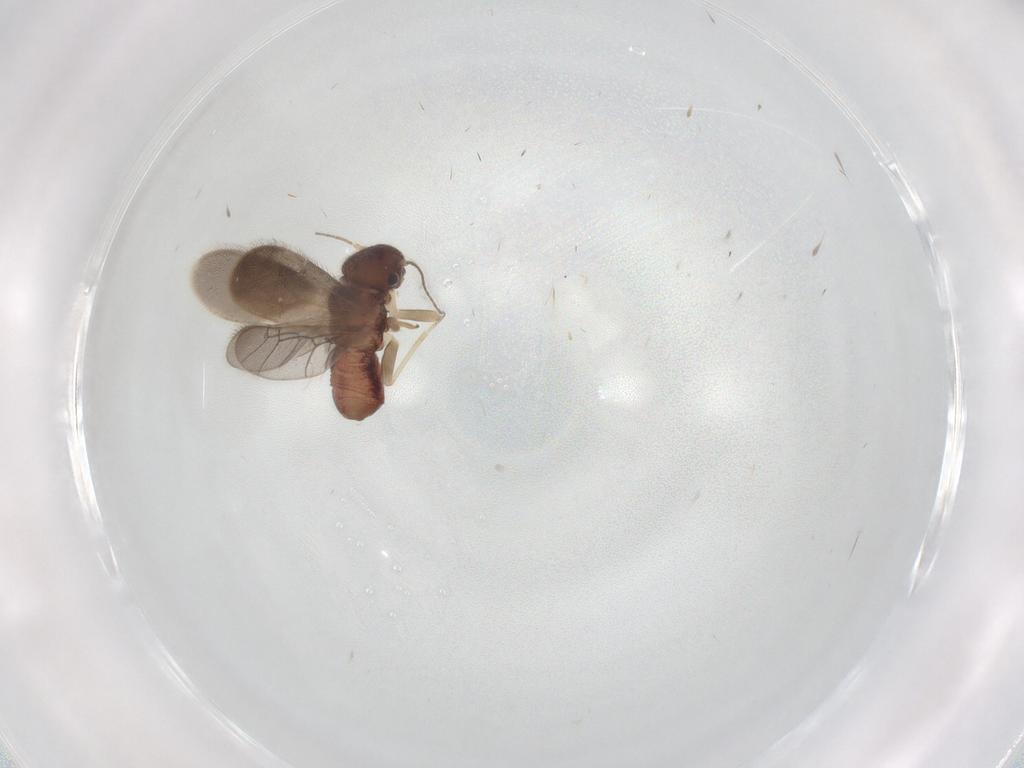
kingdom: Animalia
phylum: Arthropoda
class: Insecta
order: Psocodea
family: Archipsocidae
